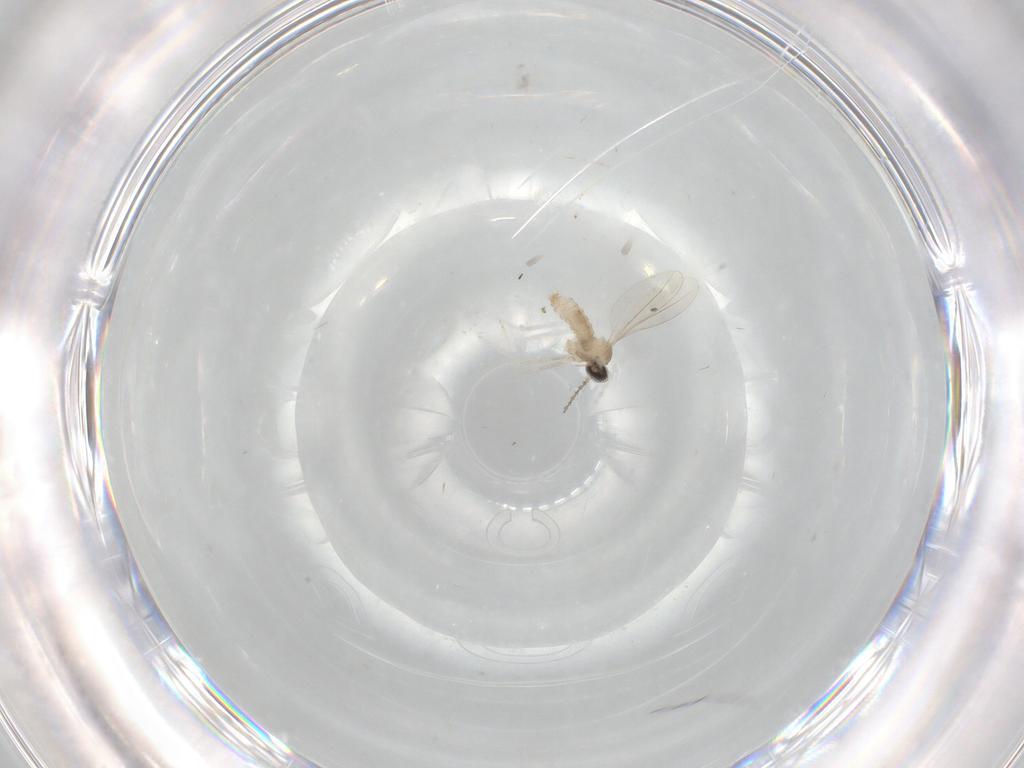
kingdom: Animalia
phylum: Arthropoda
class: Insecta
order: Diptera
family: Cecidomyiidae
